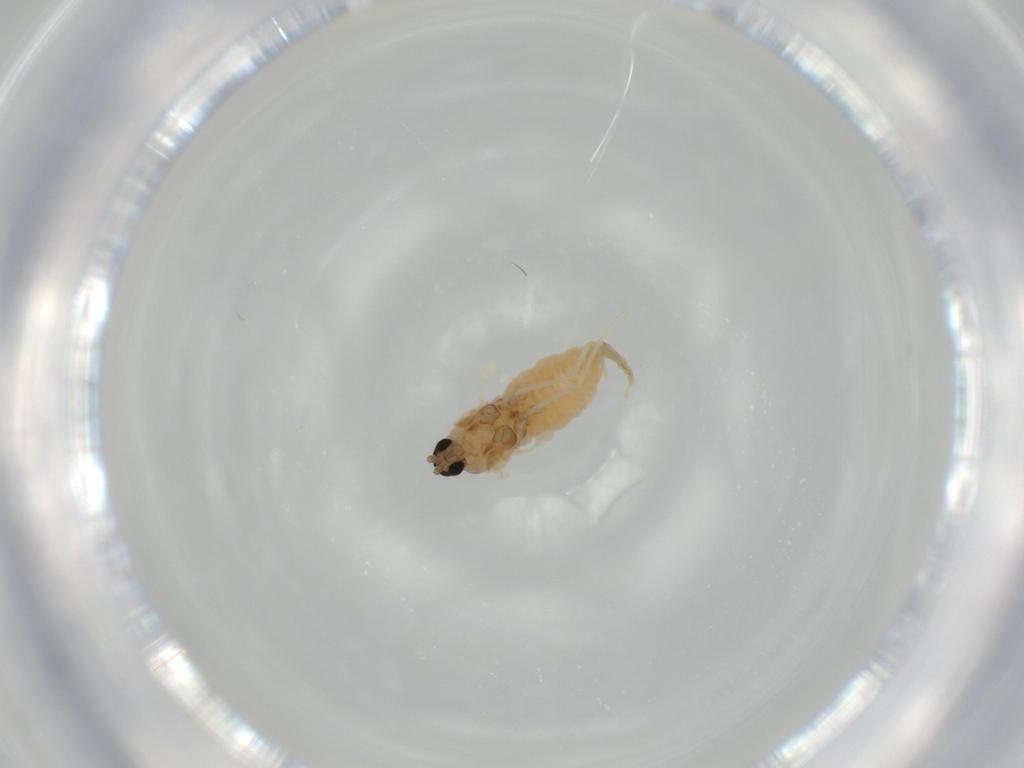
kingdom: Animalia
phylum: Arthropoda
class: Insecta
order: Diptera
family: Cecidomyiidae
